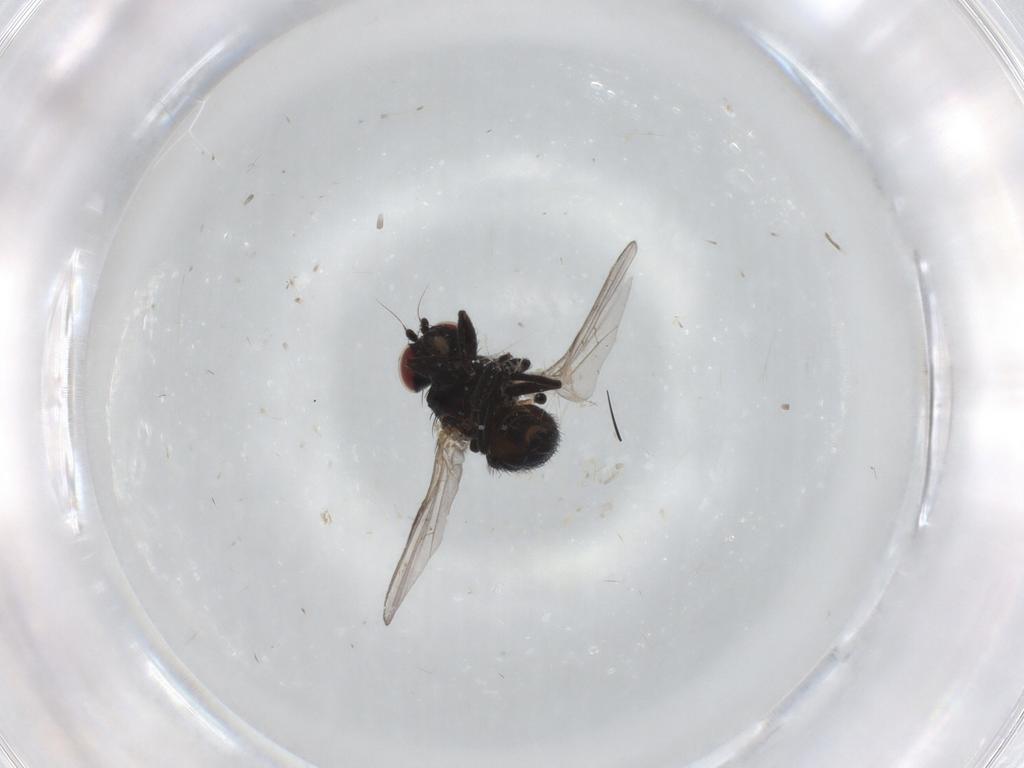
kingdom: Animalia
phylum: Arthropoda
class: Insecta
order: Diptera
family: Agromyzidae
